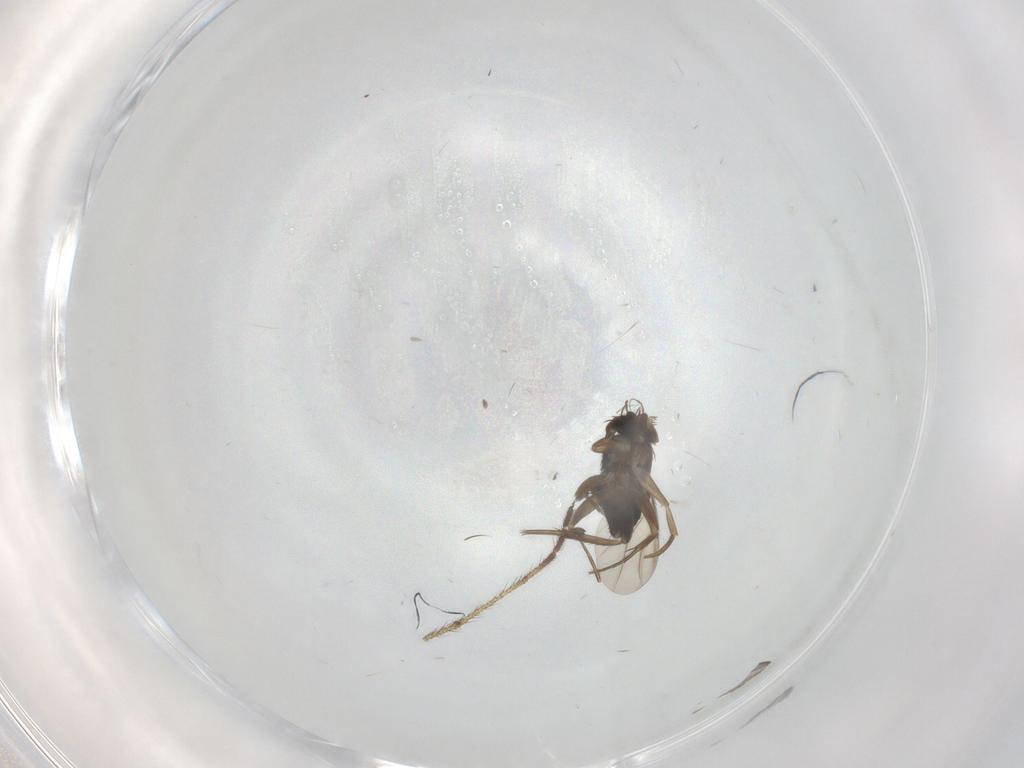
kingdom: Animalia
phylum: Arthropoda
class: Insecta
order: Diptera
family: Phoridae
